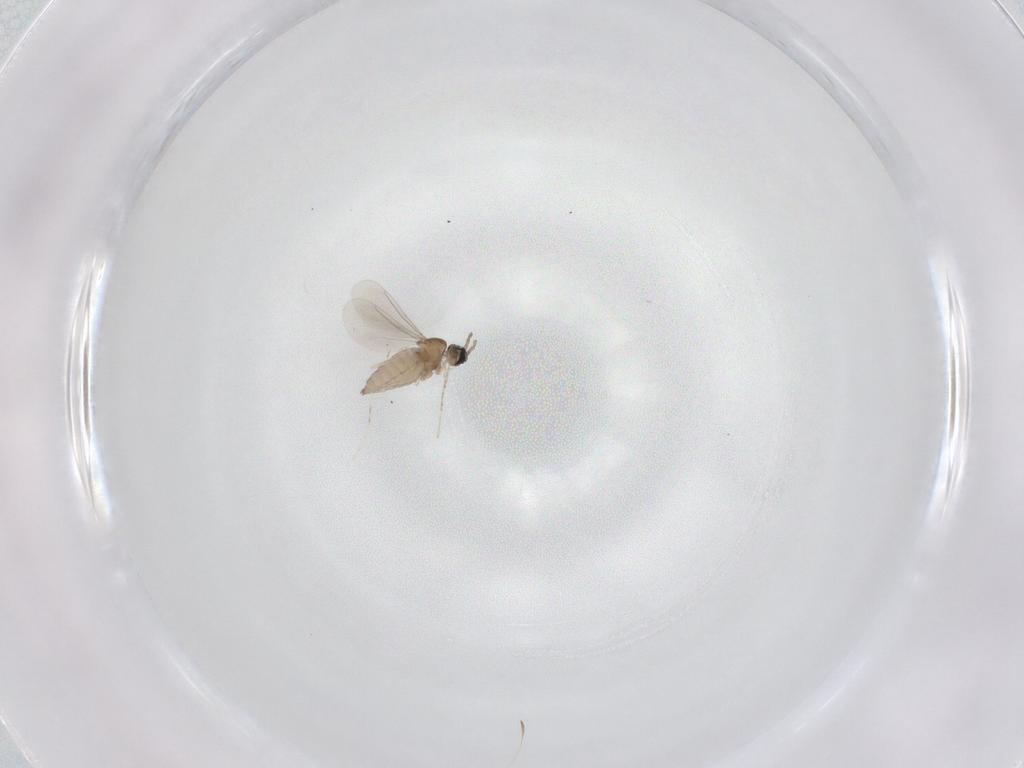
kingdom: Animalia
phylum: Arthropoda
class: Insecta
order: Diptera
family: Cecidomyiidae
